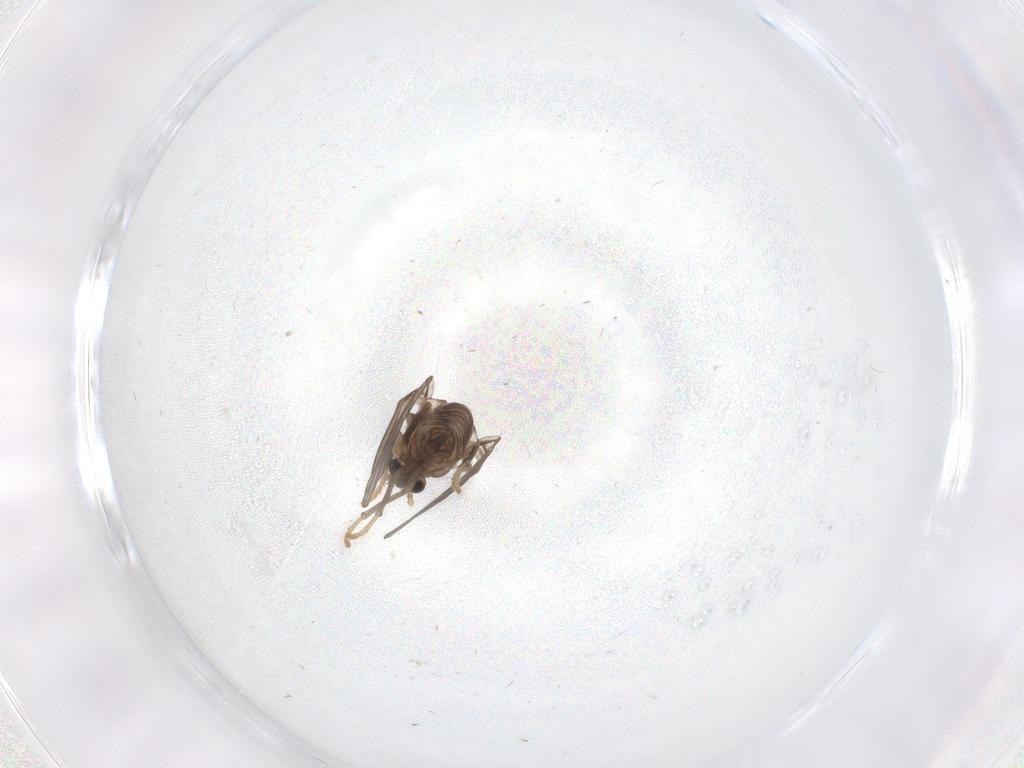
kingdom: Animalia
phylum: Arthropoda
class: Insecta
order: Diptera
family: Psychodidae
